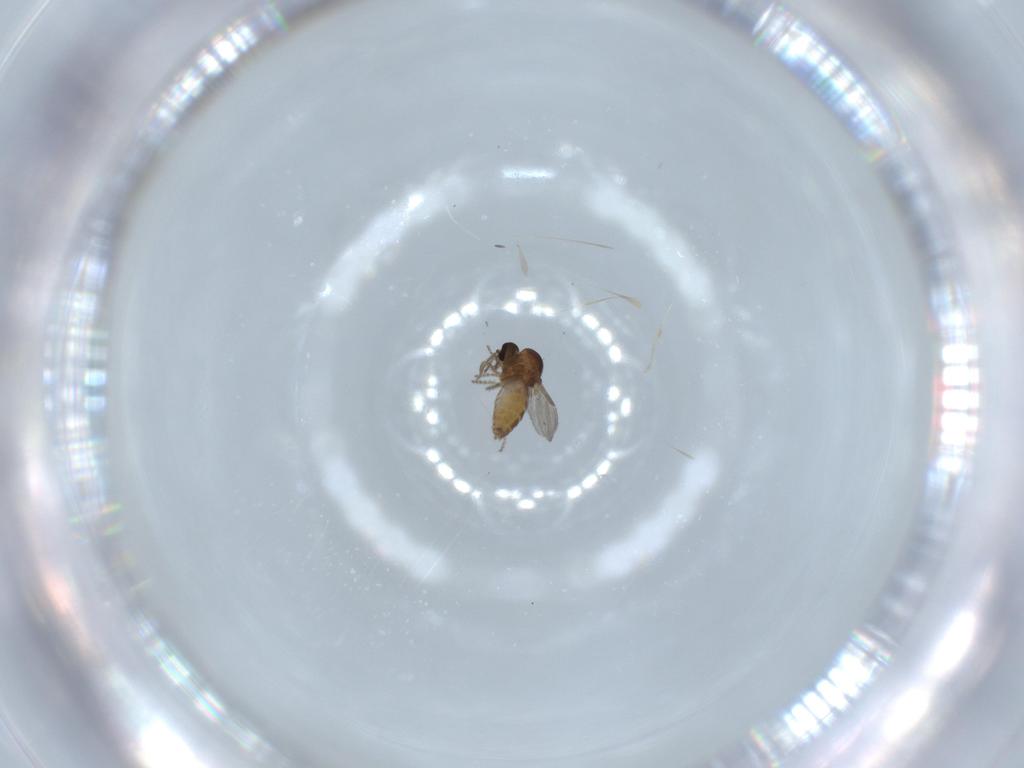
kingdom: Animalia
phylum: Arthropoda
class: Insecta
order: Diptera
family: Ceratopogonidae
